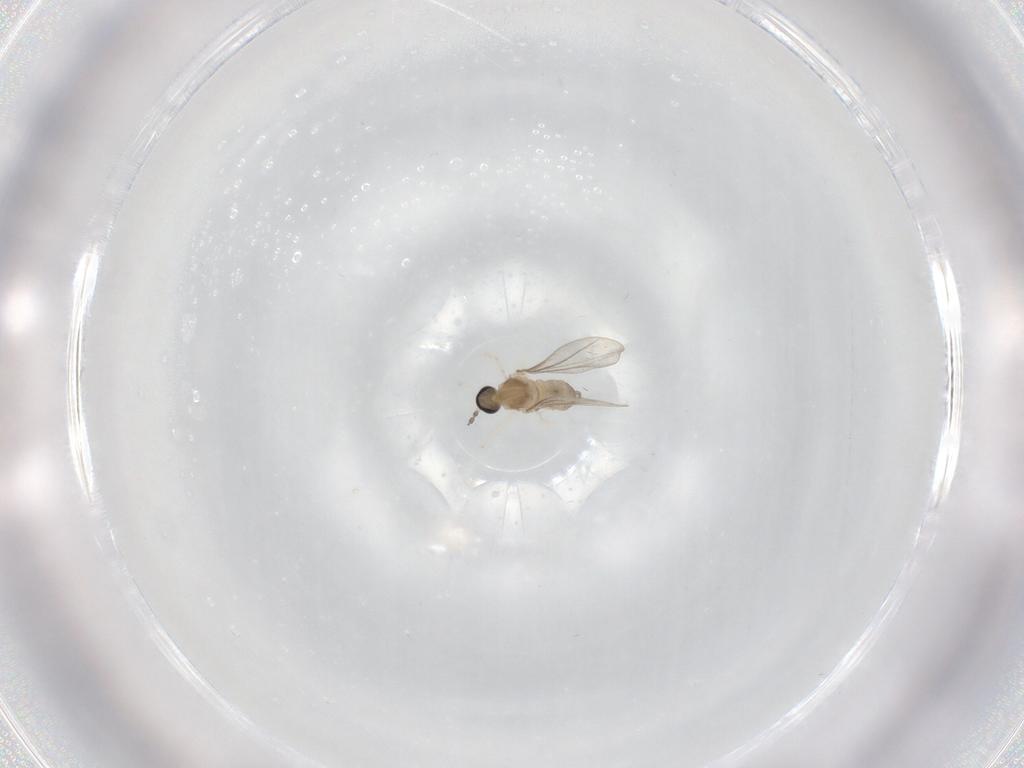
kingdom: Animalia
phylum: Arthropoda
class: Insecta
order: Diptera
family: Cecidomyiidae
